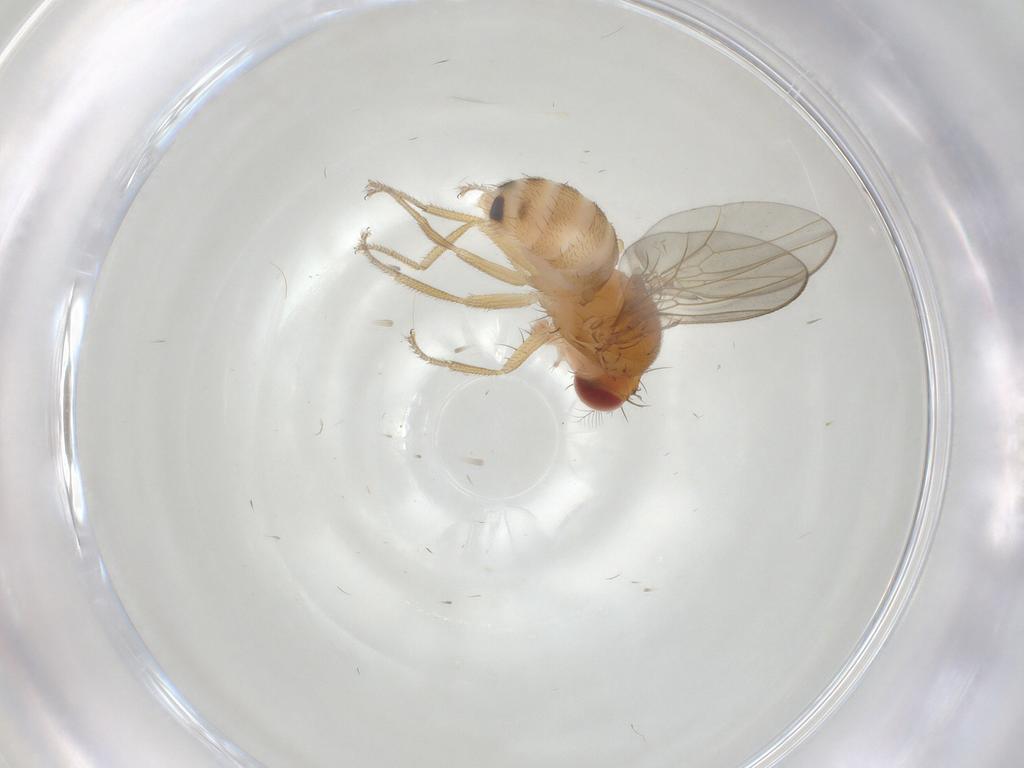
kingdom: Animalia
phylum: Arthropoda
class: Insecta
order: Diptera
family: Drosophilidae
